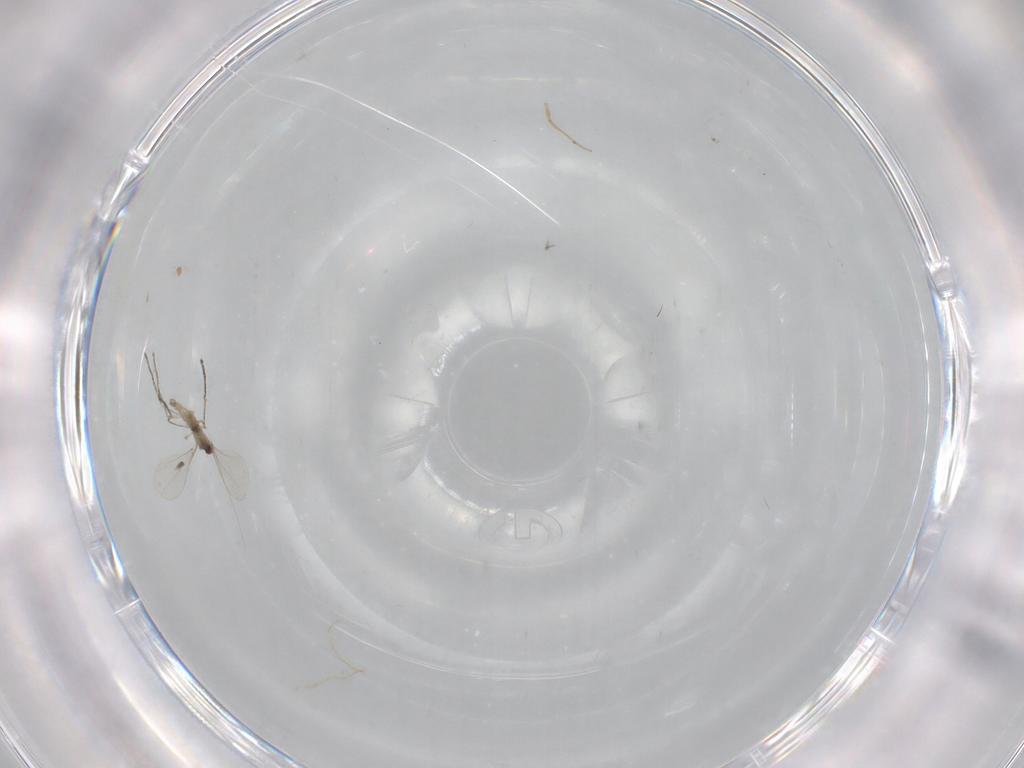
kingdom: Animalia
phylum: Arthropoda
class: Insecta
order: Diptera
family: Cecidomyiidae
